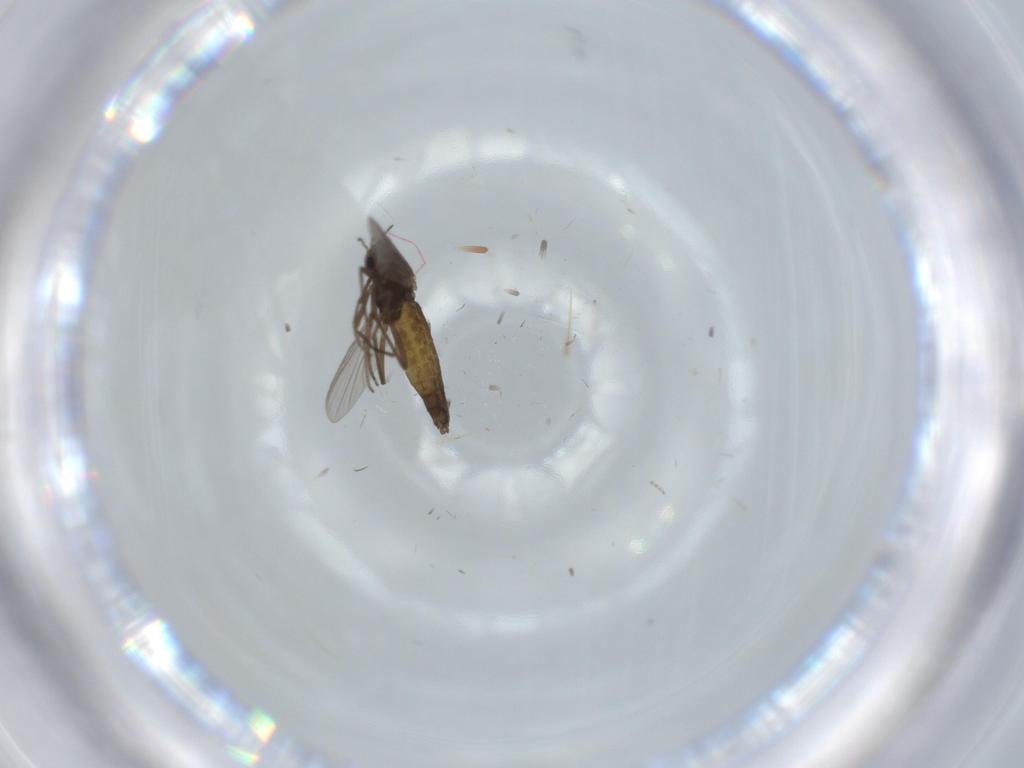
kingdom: Animalia
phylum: Arthropoda
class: Insecta
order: Diptera
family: Chironomidae
